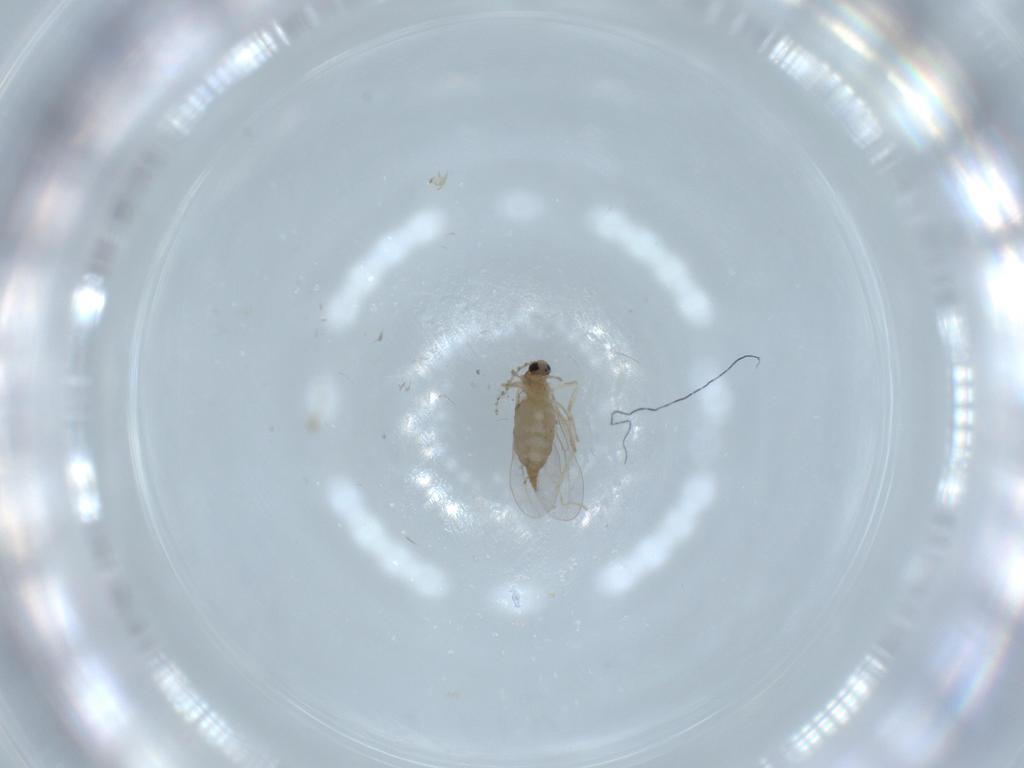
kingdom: Animalia
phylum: Arthropoda
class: Insecta
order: Diptera
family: Cecidomyiidae
